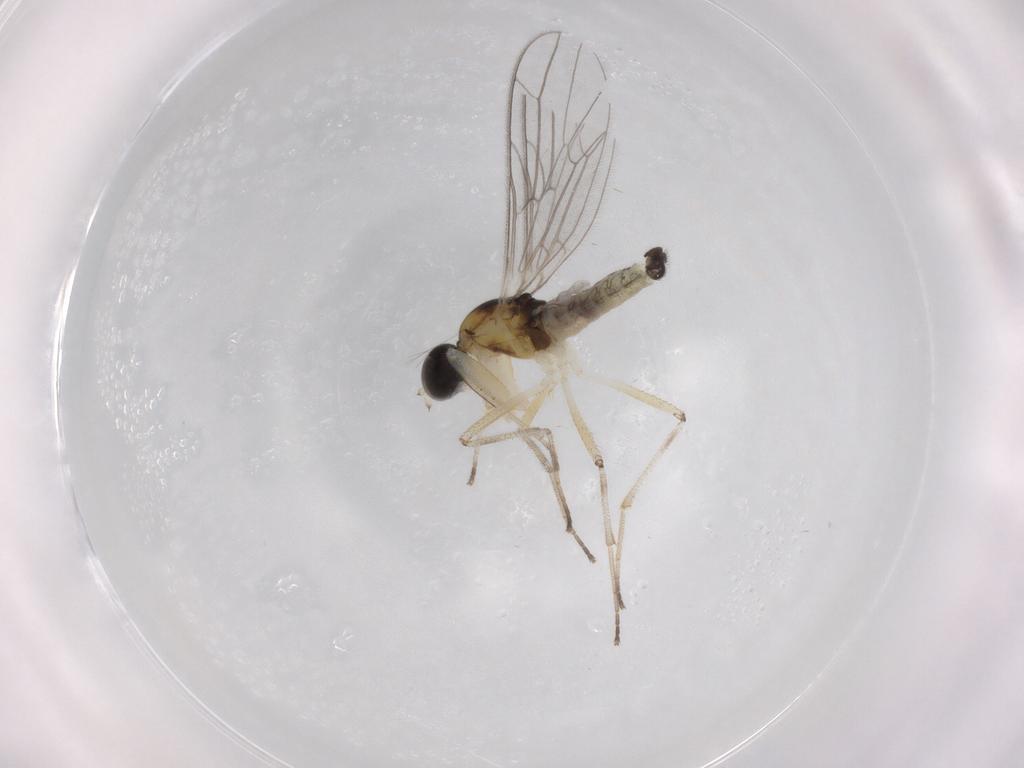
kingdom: Animalia
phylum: Arthropoda
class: Insecta
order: Diptera
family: Empididae
